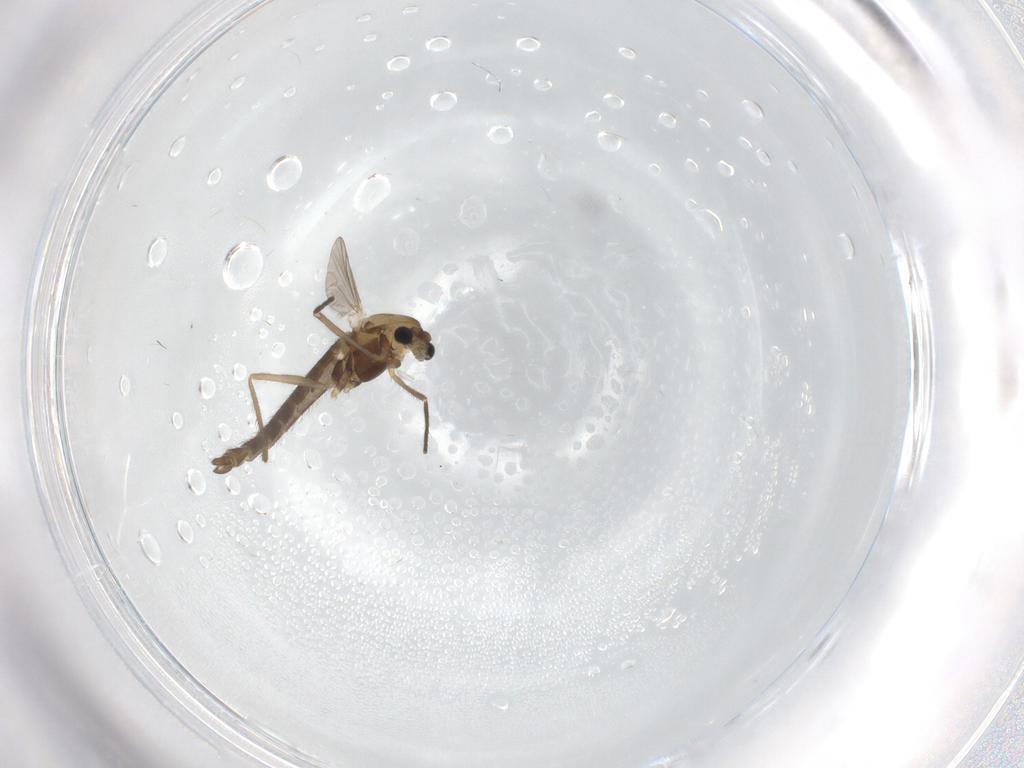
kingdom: Animalia
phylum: Arthropoda
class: Insecta
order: Diptera
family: Chironomidae
